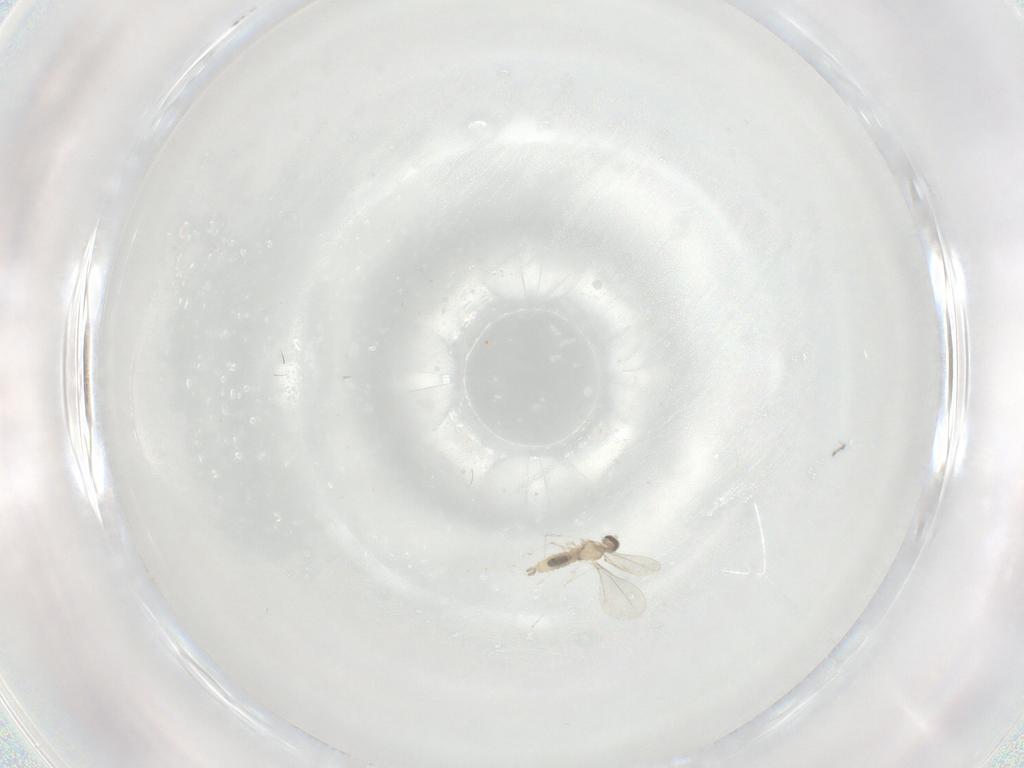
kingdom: Animalia
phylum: Arthropoda
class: Insecta
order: Diptera
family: Cecidomyiidae
